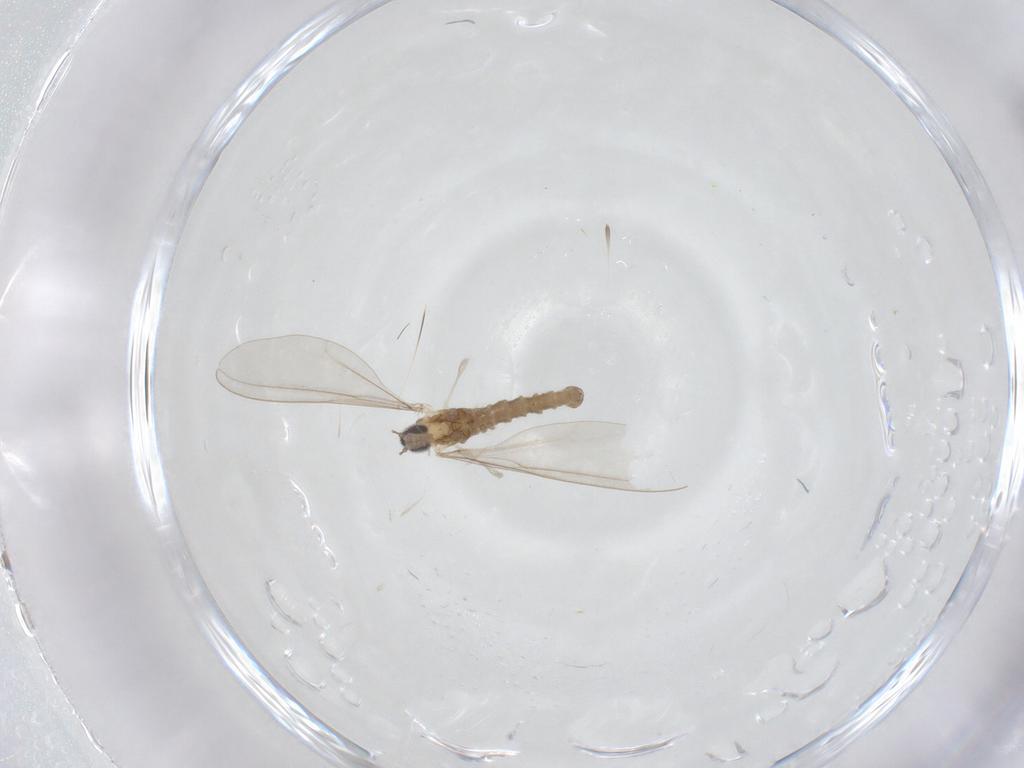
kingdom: Animalia
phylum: Arthropoda
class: Insecta
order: Diptera
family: Cecidomyiidae
